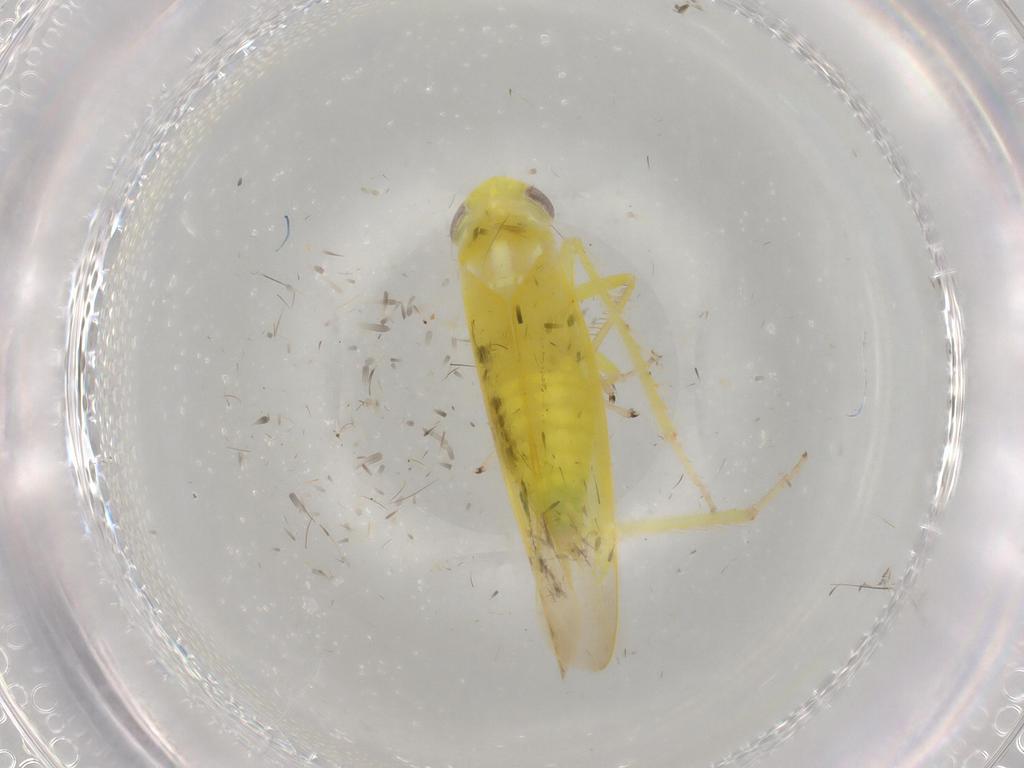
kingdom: Animalia
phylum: Arthropoda
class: Insecta
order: Hemiptera
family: Cicadellidae
